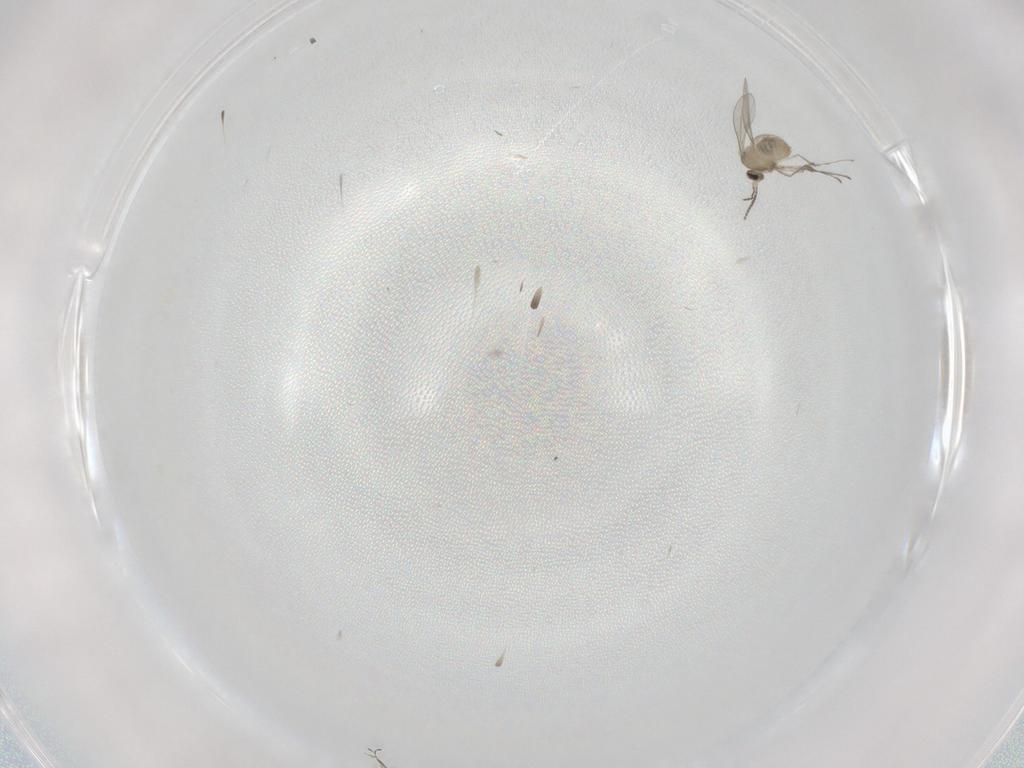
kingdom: Animalia
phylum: Arthropoda
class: Insecta
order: Diptera
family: Cecidomyiidae
